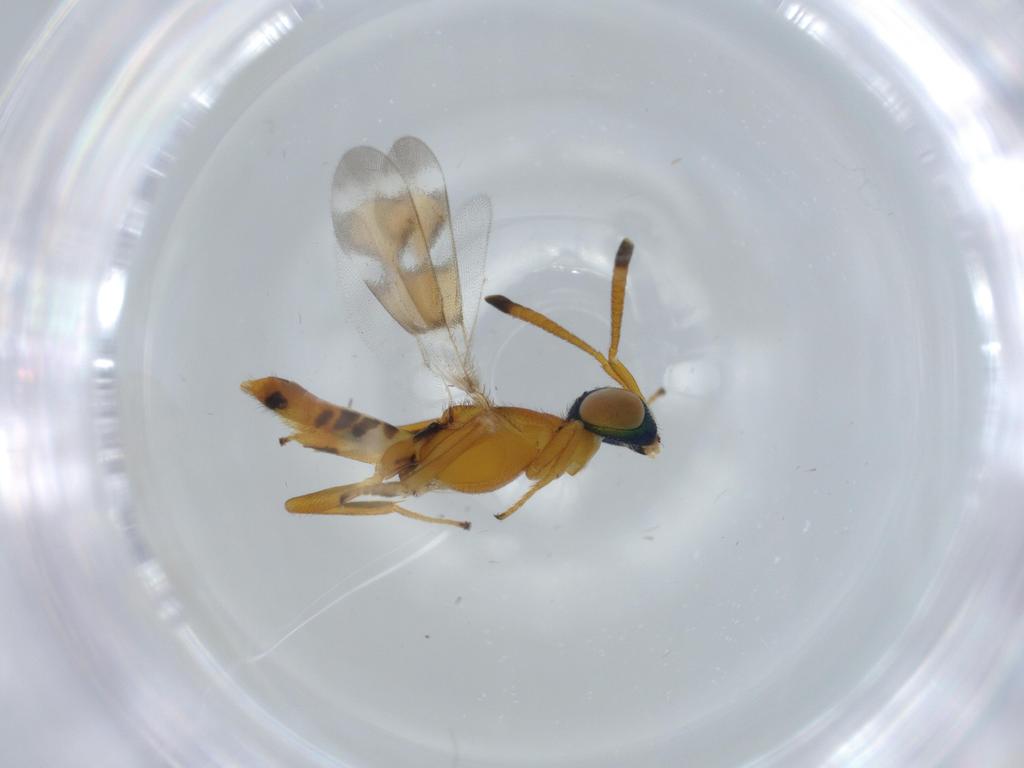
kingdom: Animalia
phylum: Arthropoda
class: Insecta
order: Hymenoptera
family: Eupelmidae
